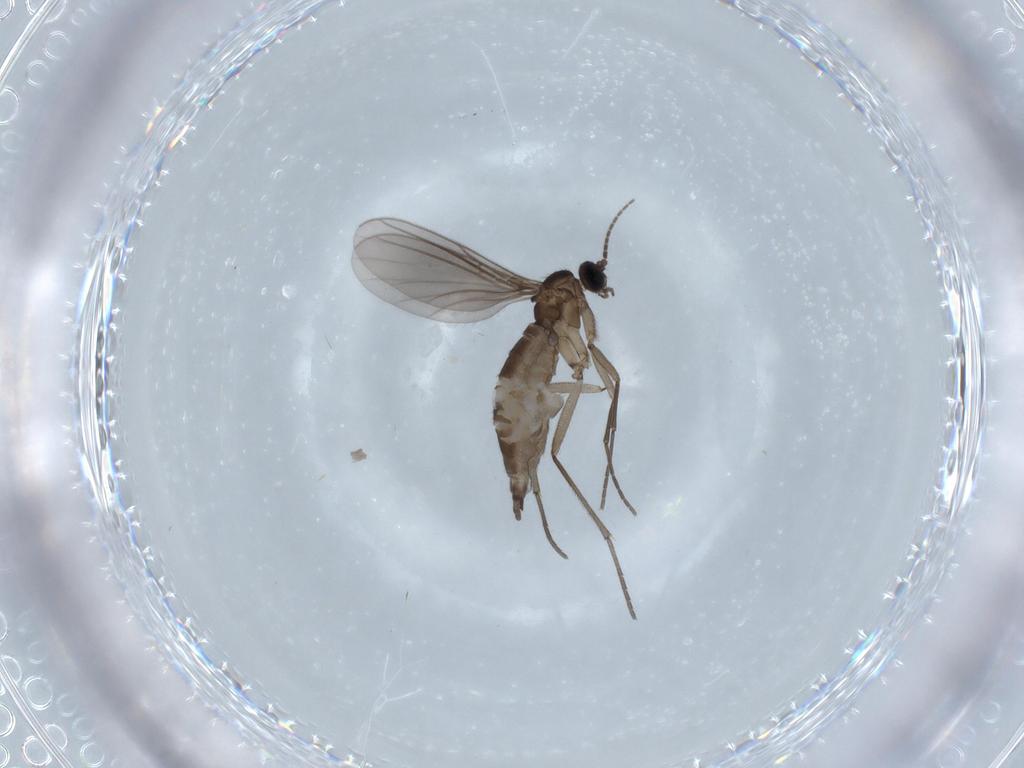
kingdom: Animalia
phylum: Arthropoda
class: Insecta
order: Diptera
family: Sciaridae
